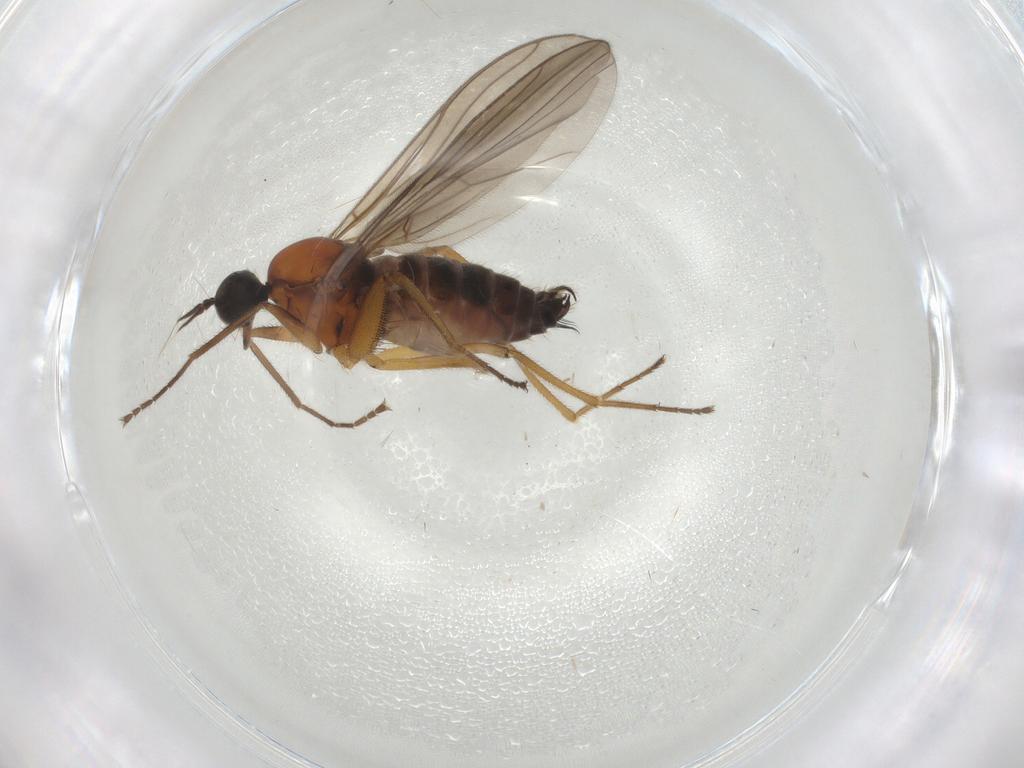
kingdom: Animalia
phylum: Arthropoda
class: Insecta
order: Diptera
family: Hybotidae
